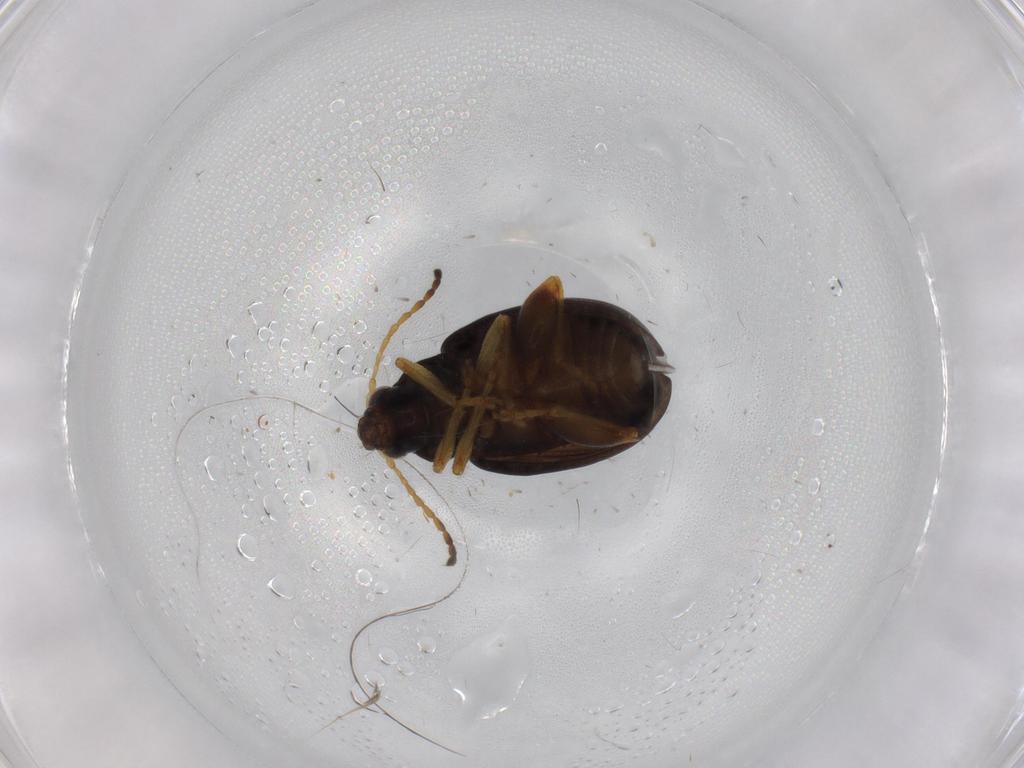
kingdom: Animalia
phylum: Arthropoda
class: Insecta
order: Coleoptera
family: Chrysomelidae
